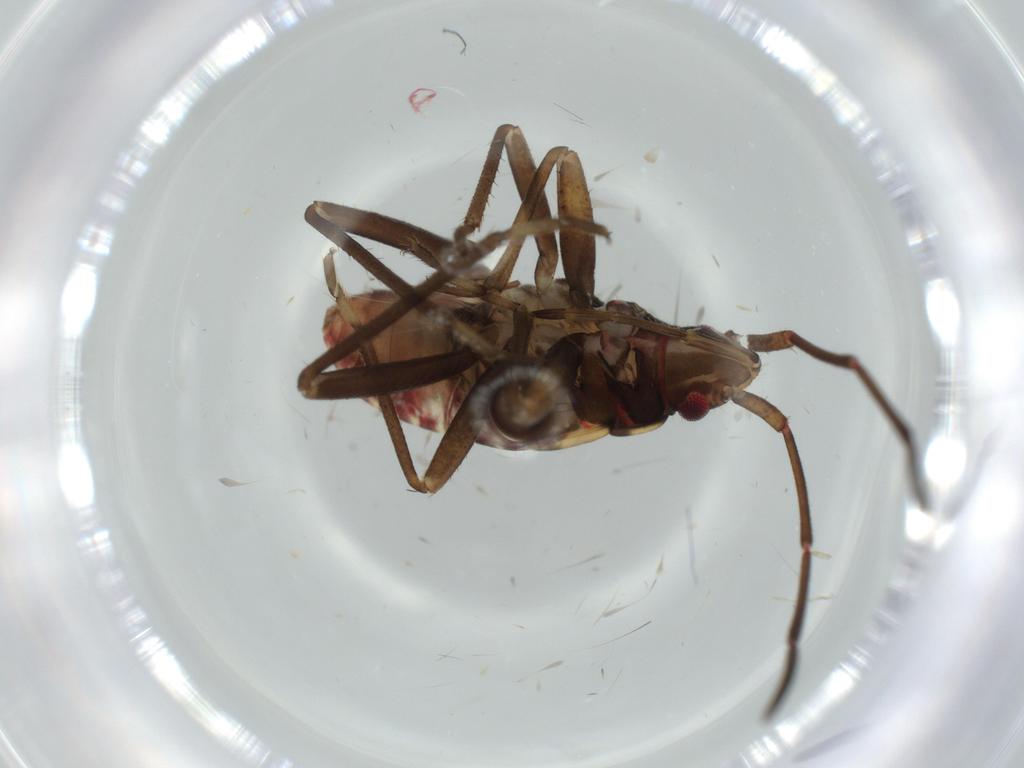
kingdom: Animalia
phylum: Arthropoda
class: Insecta
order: Hemiptera
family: Rhyparochromidae
